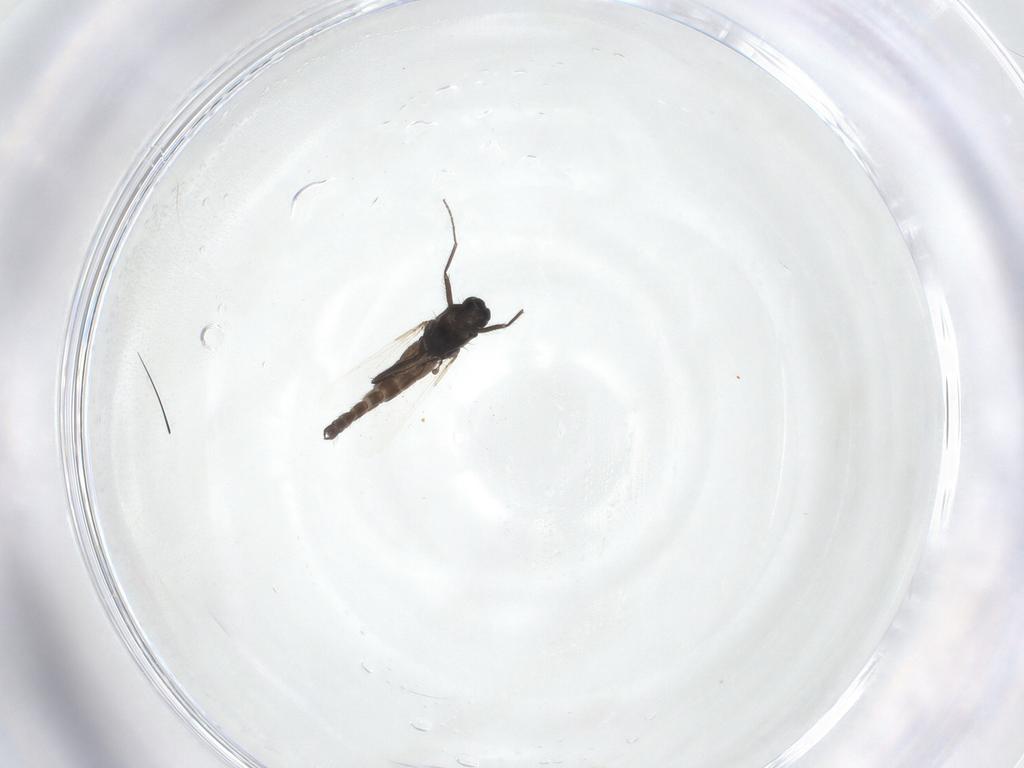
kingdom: Animalia
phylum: Arthropoda
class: Insecta
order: Diptera
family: Ceratopogonidae
